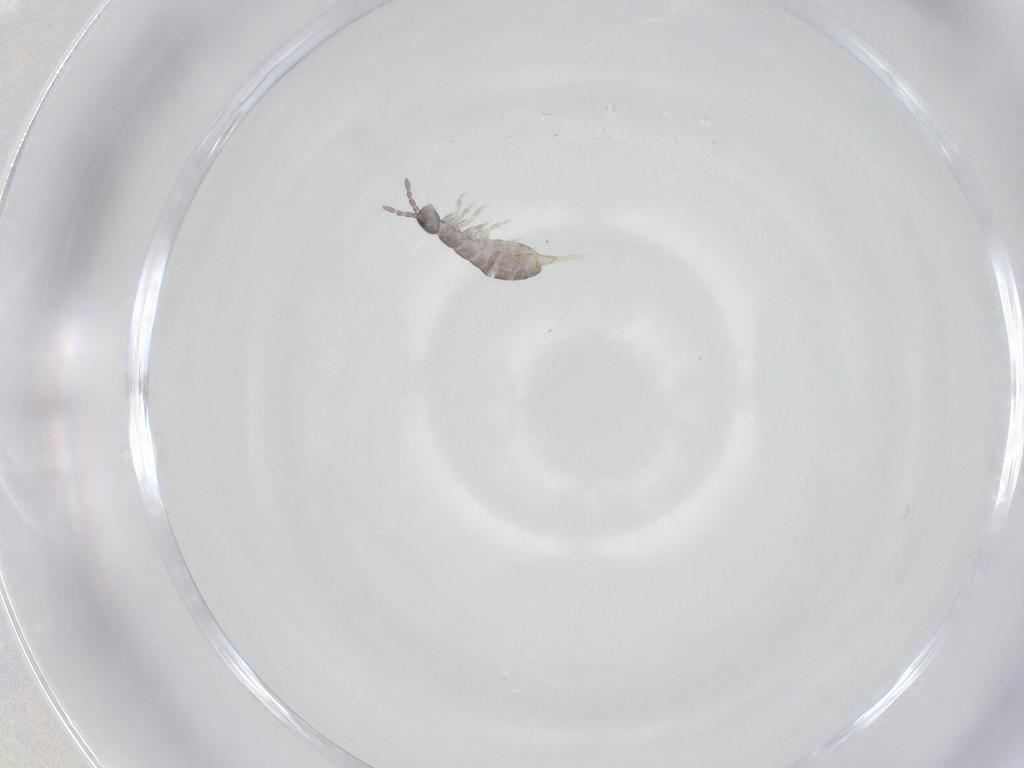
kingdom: Animalia
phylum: Arthropoda
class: Collembola
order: Entomobryomorpha
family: Isotomidae
